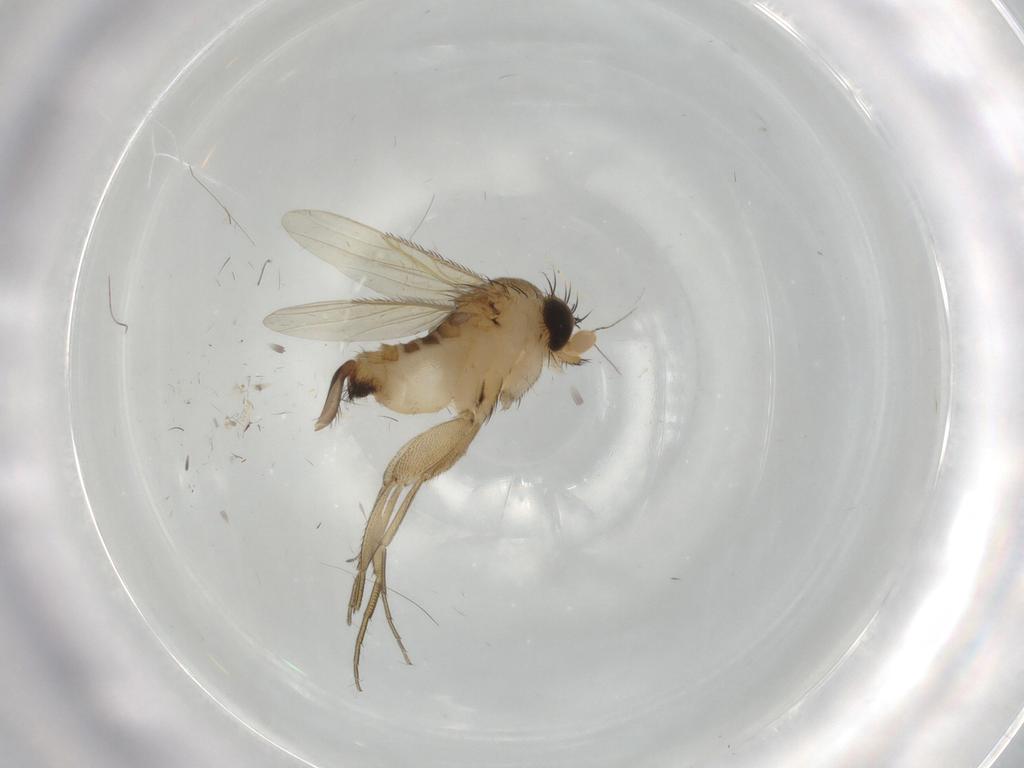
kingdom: Animalia
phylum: Arthropoda
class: Insecta
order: Diptera
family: Phoridae
